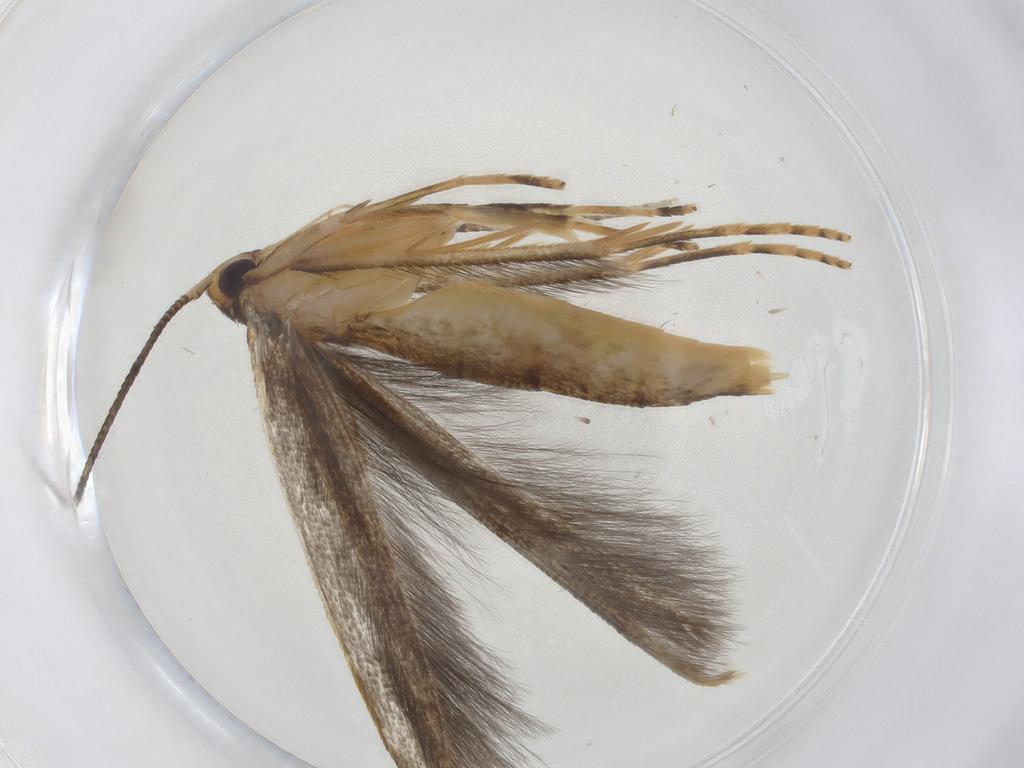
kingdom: Animalia
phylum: Arthropoda
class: Insecta
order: Lepidoptera
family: Pterolonchidae
